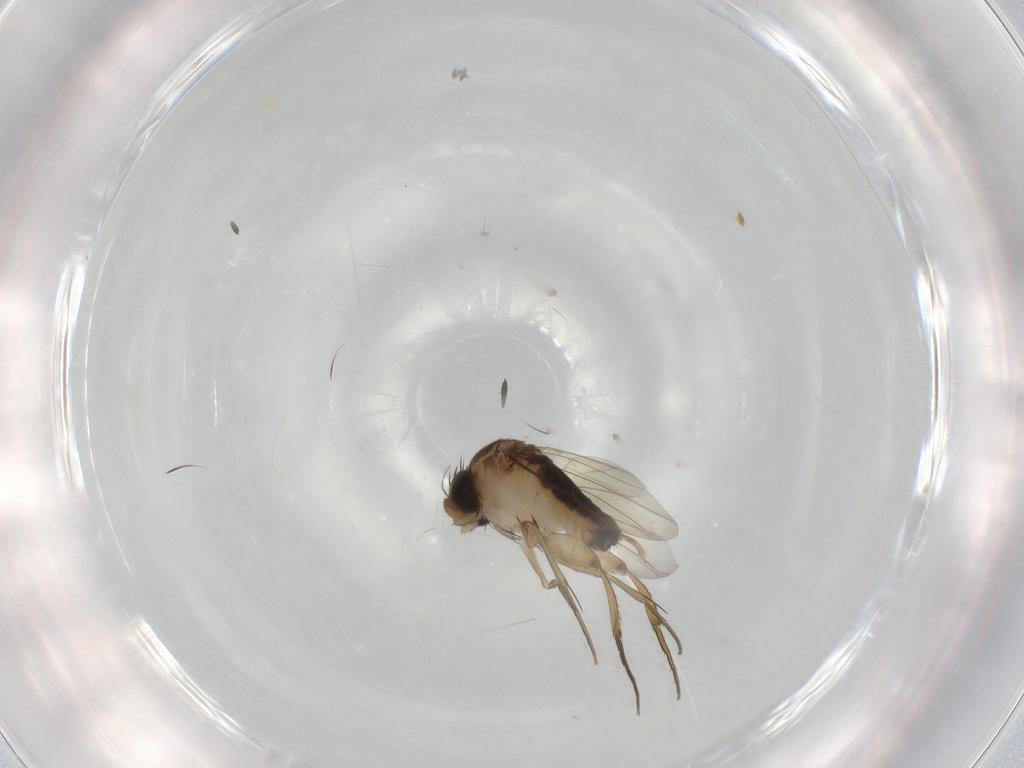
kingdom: Animalia
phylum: Arthropoda
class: Insecta
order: Diptera
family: Phoridae
